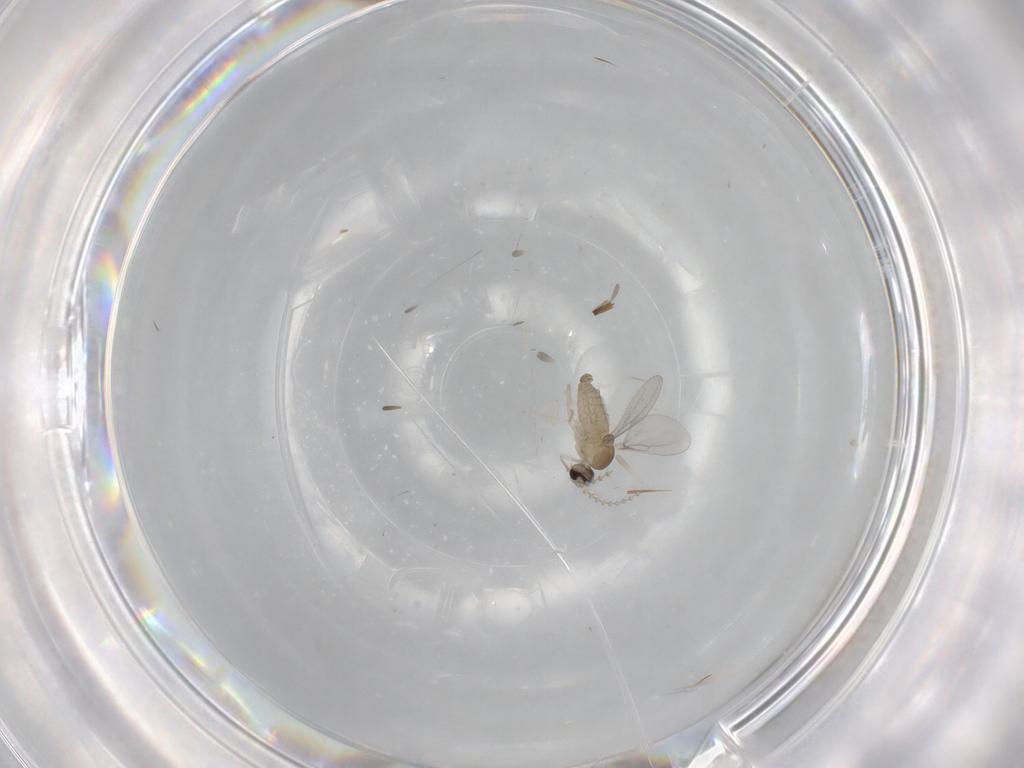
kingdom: Animalia
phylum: Arthropoda
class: Insecta
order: Diptera
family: Cecidomyiidae
